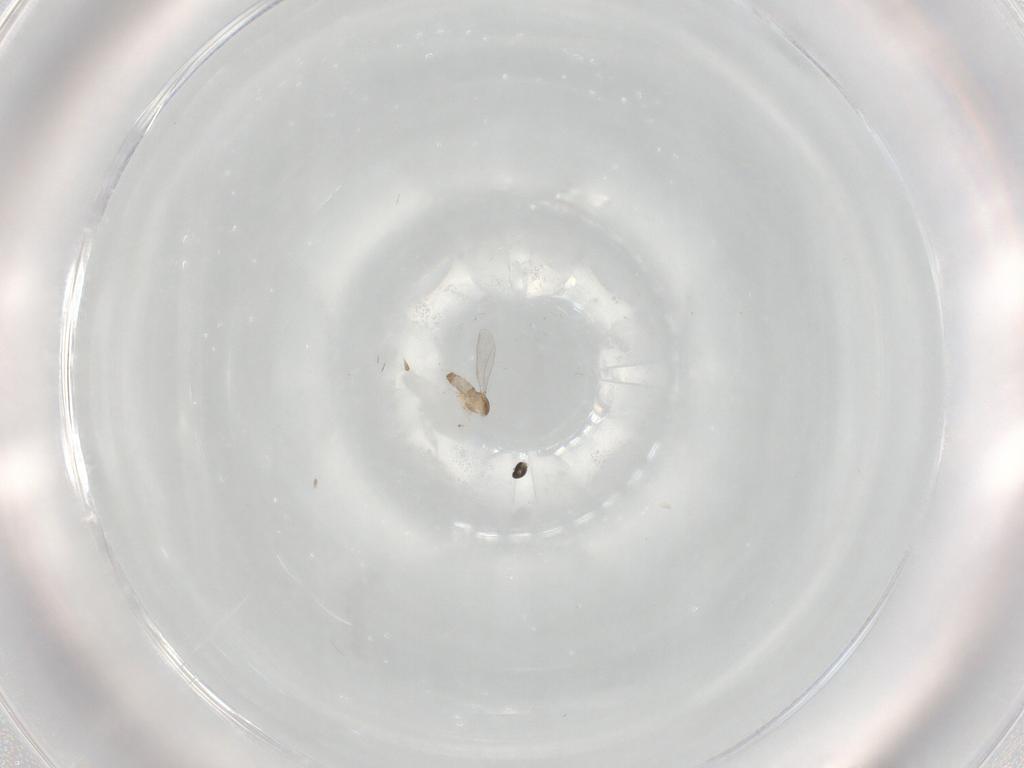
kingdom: Animalia
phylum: Arthropoda
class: Insecta
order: Diptera
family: Cecidomyiidae
